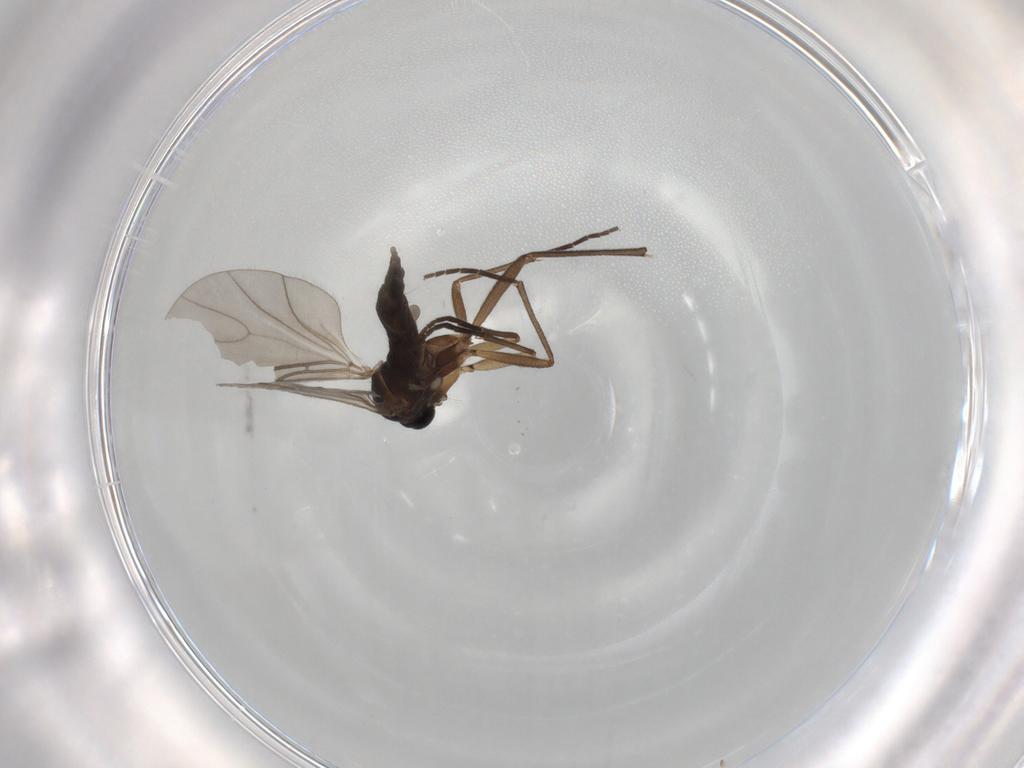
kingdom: Animalia
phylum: Arthropoda
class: Insecta
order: Diptera
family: Sciaridae
